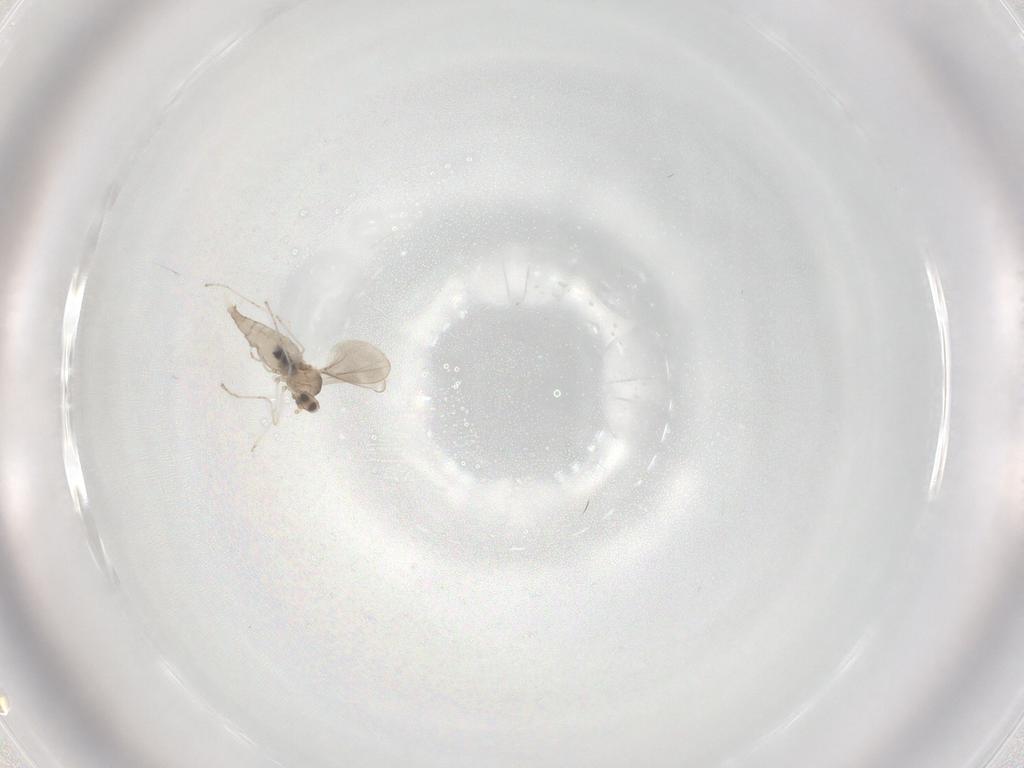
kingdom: Animalia
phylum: Arthropoda
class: Insecta
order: Diptera
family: Cecidomyiidae
